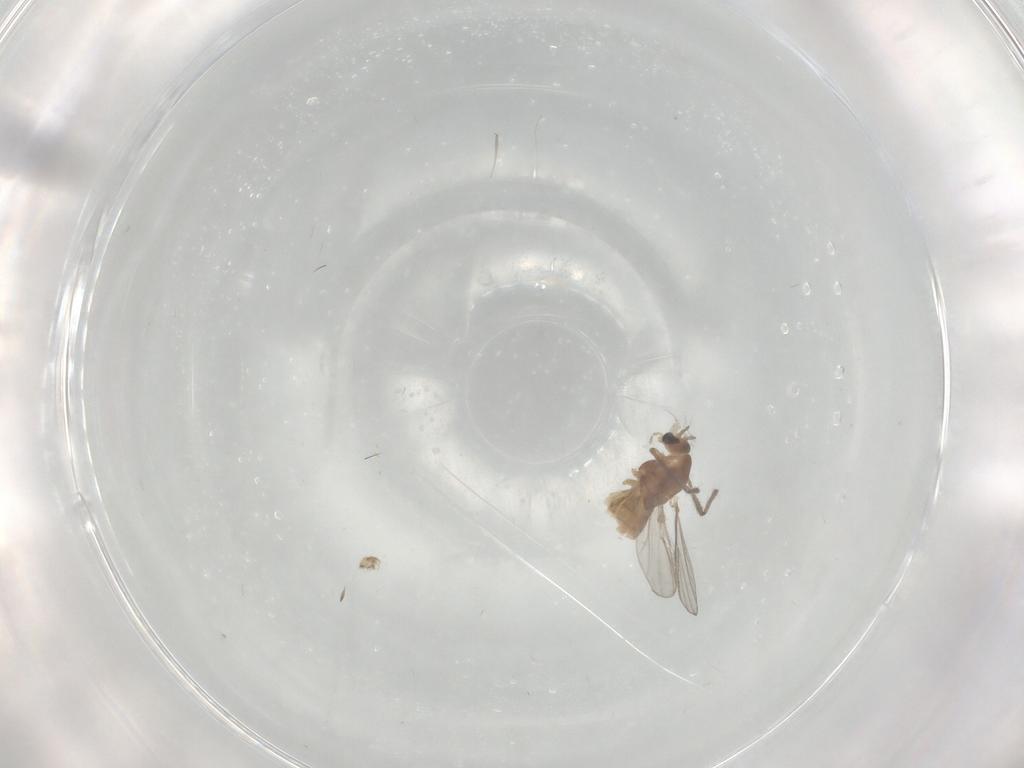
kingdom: Animalia
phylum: Arthropoda
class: Insecta
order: Diptera
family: Chironomidae
